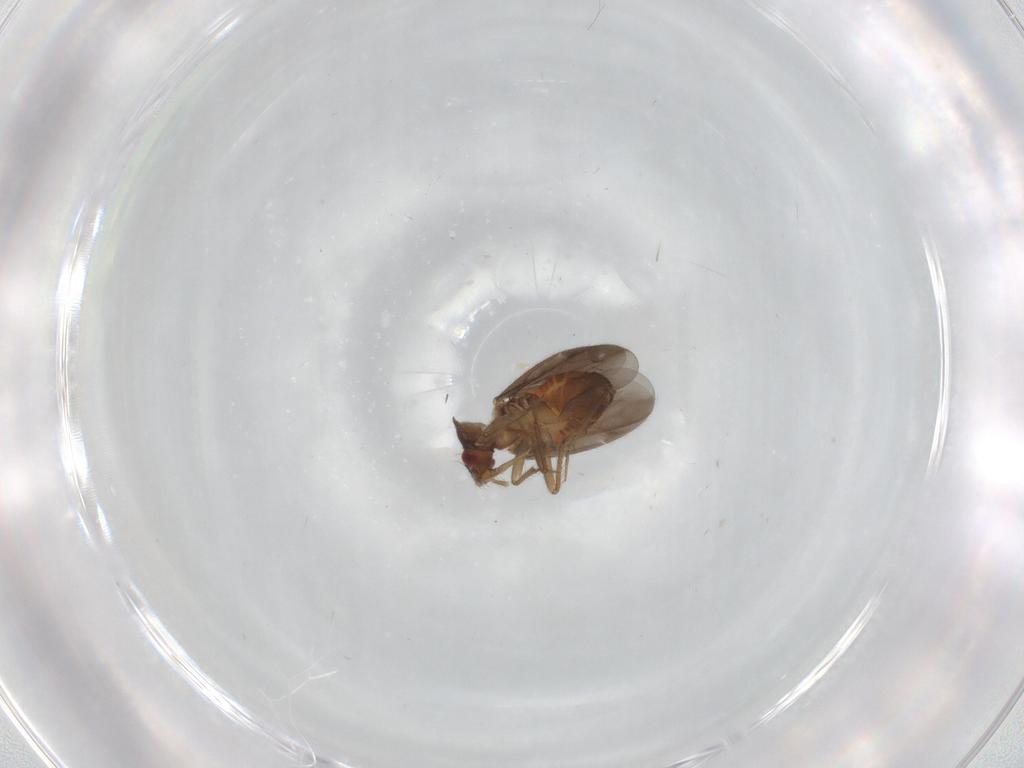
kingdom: Animalia
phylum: Arthropoda
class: Insecta
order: Hemiptera
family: Ceratocombidae
